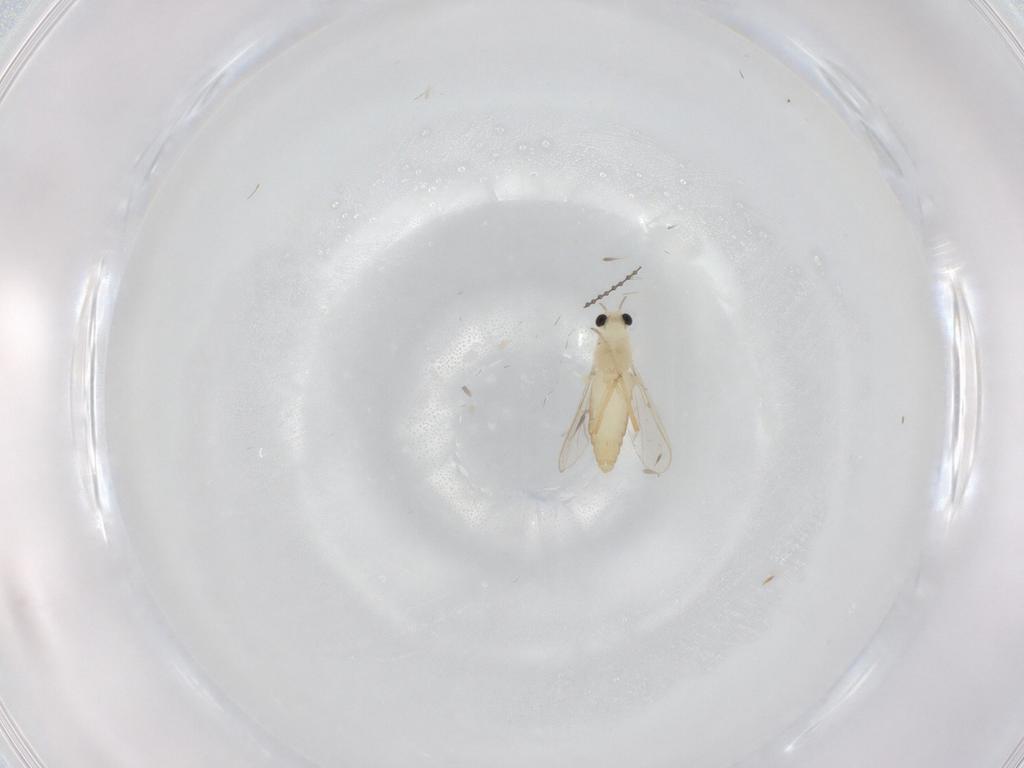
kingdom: Animalia
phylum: Arthropoda
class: Insecta
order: Diptera
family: Chironomidae
